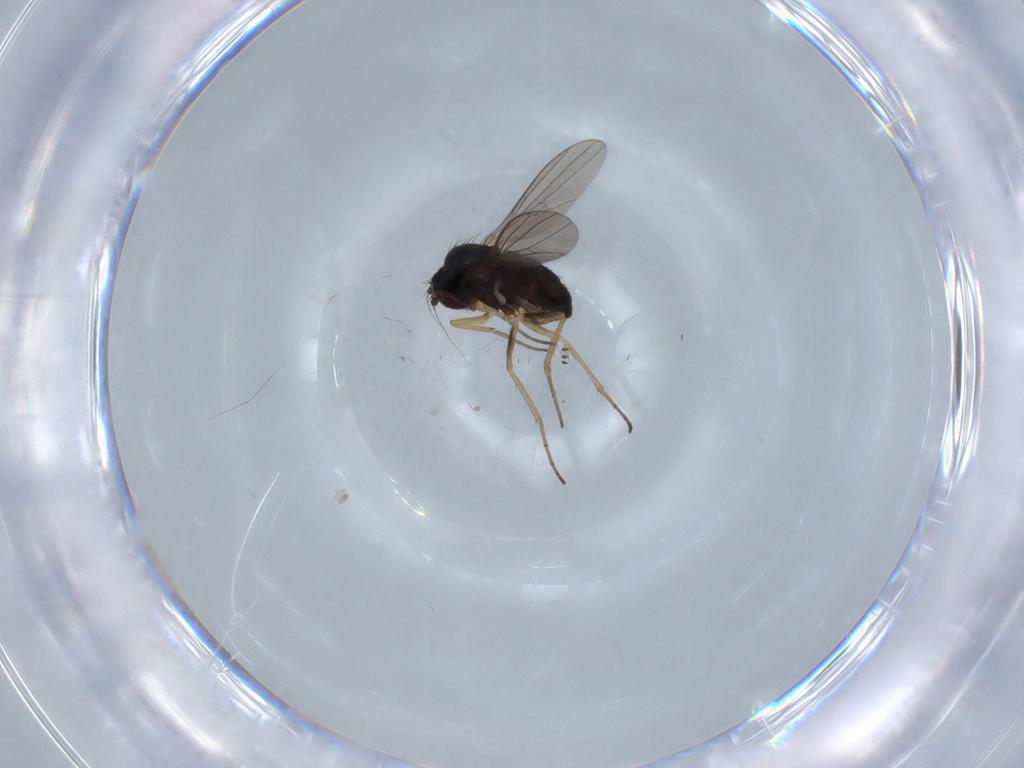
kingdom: Animalia
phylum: Arthropoda
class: Insecta
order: Diptera
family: Dolichopodidae
